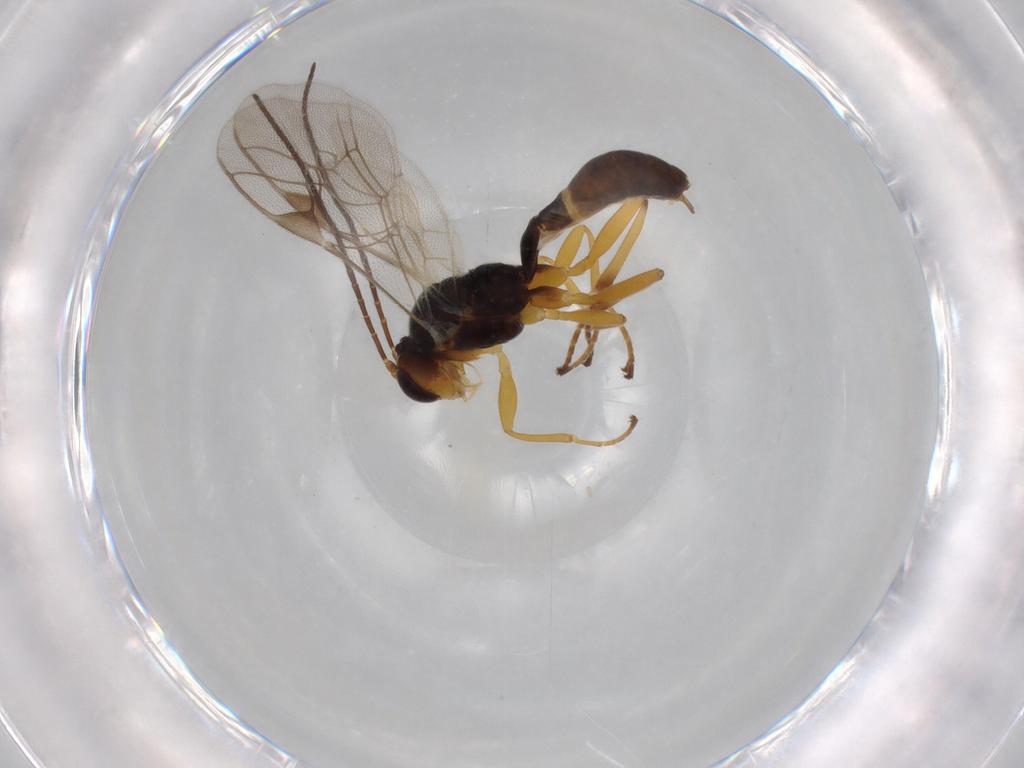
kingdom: Animalia
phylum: Arthropoda
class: Insecta
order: Hymenoptera
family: Ichneumonidae
